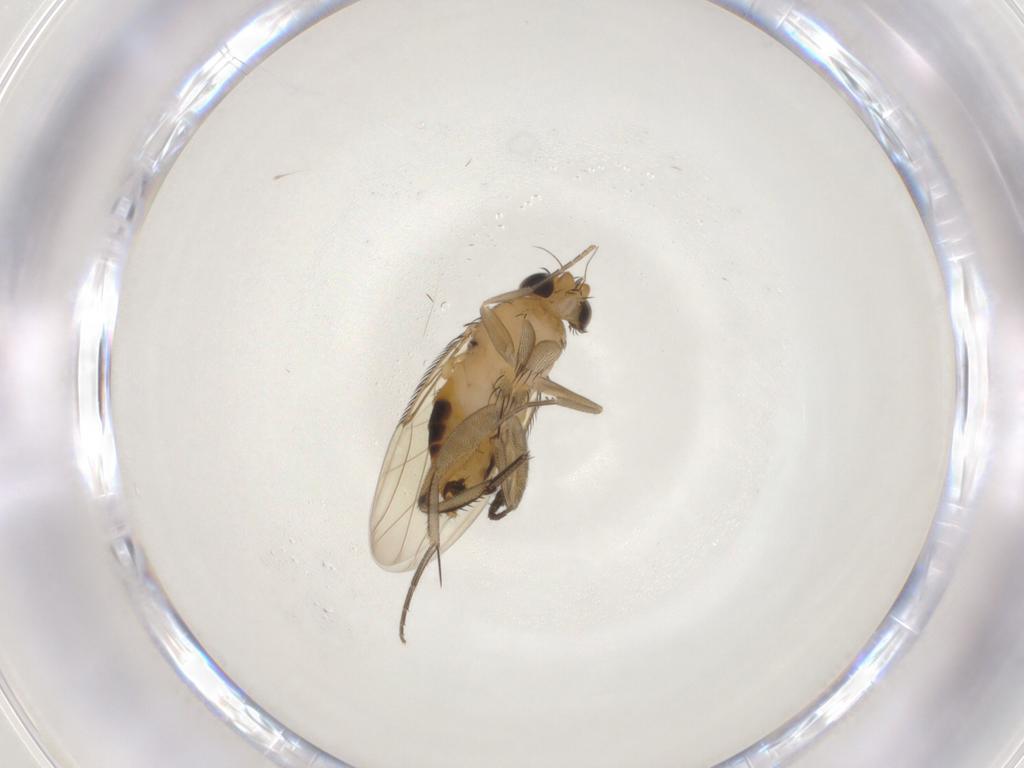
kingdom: Animalia
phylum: Arthropoda
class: Insecta
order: Diptera
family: Phoridae
